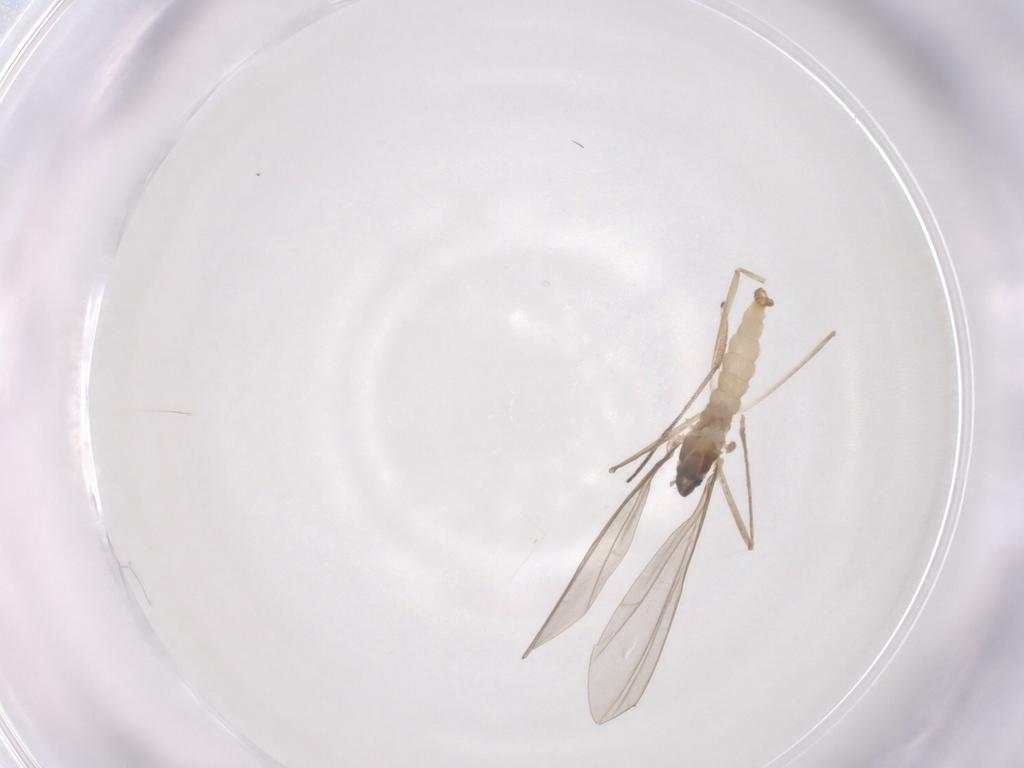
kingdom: Animalia
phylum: Arthropoda
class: Insecta
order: Diptera
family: Cecidomyiidae
